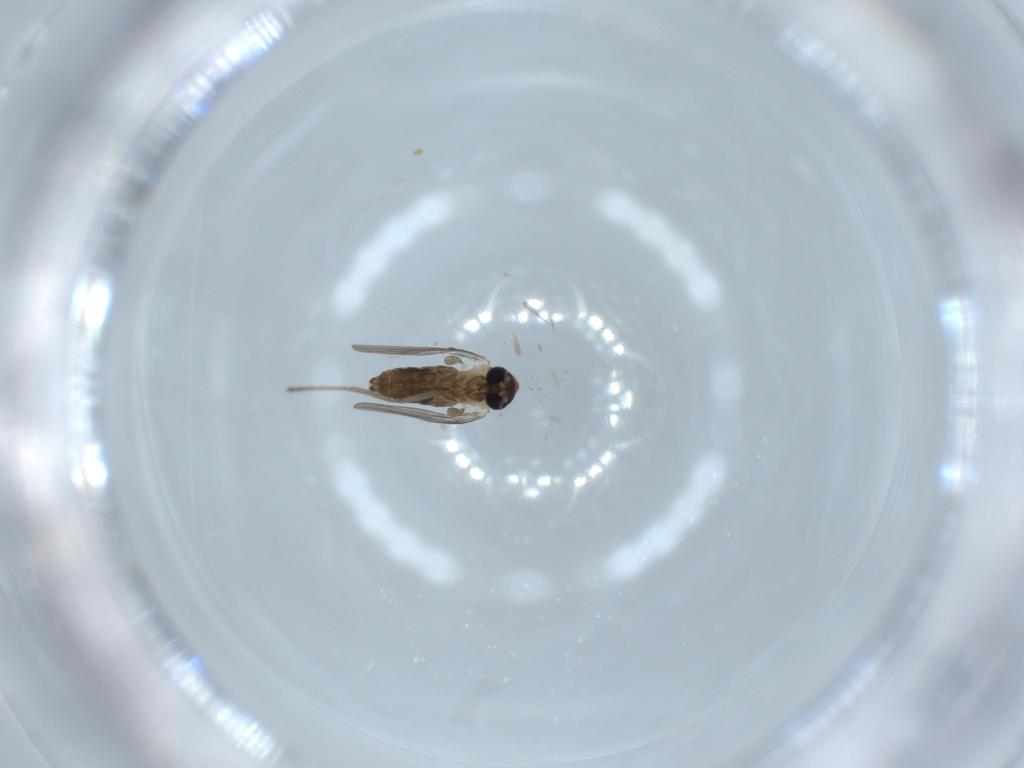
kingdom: Animalia
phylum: Arthropoda
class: Insecta
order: Diptera
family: Psychodidae
